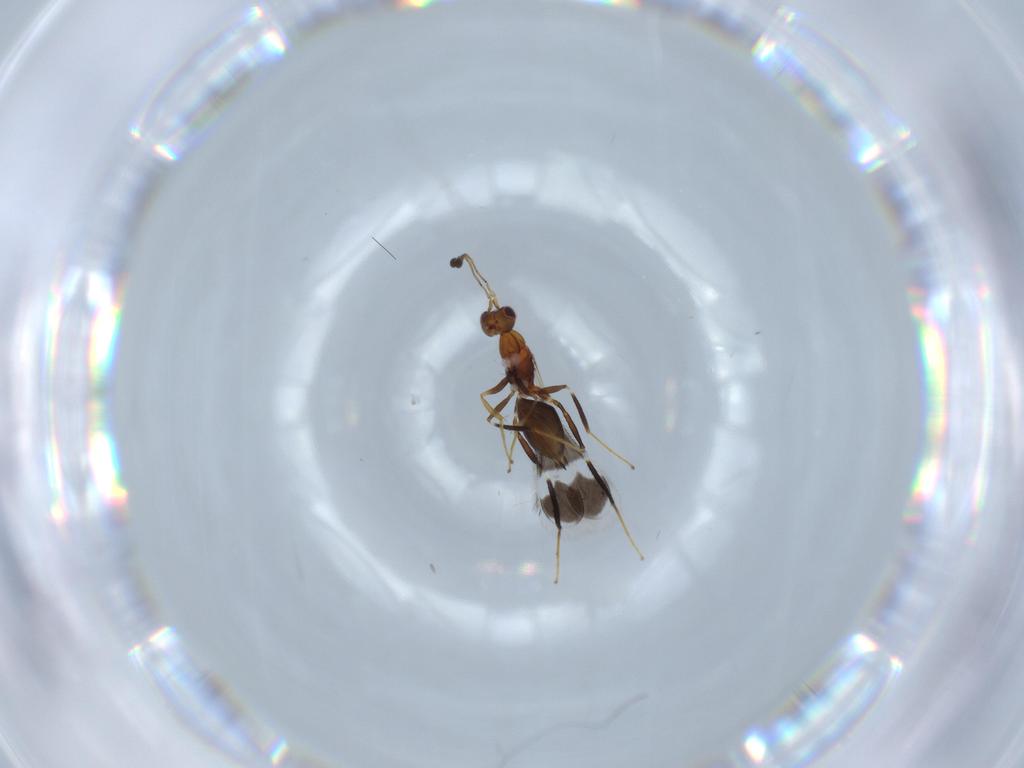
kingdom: Animalia
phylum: Arthropoda
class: Insecta
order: Hymenoptera
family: Mymaridae
